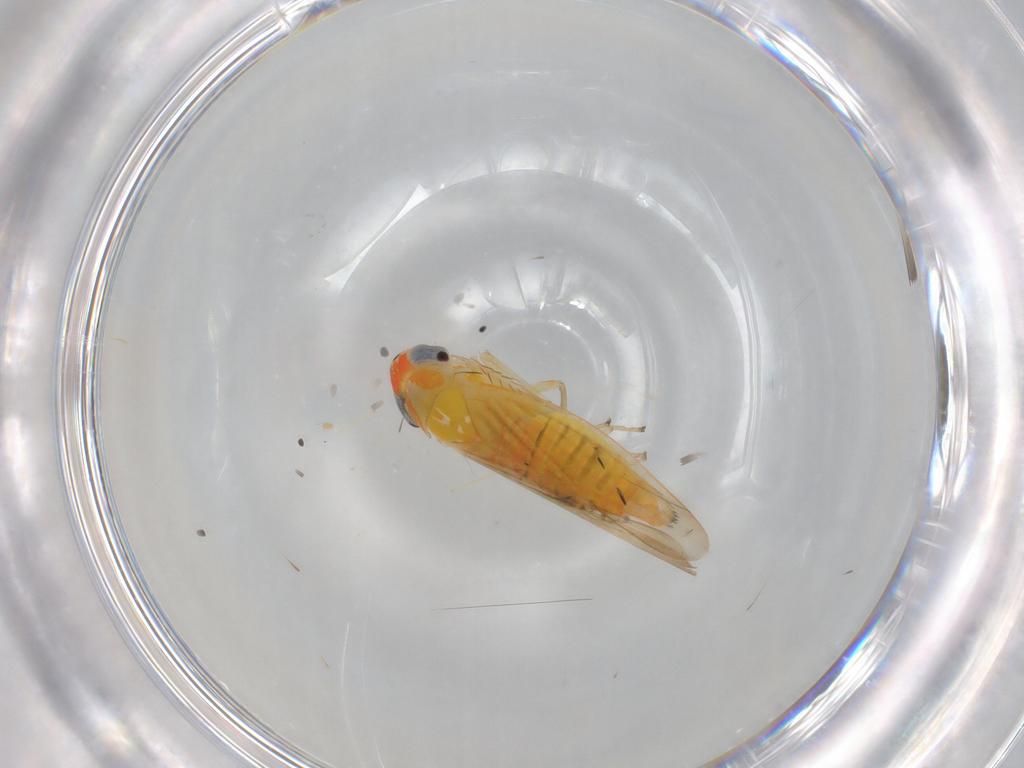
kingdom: Animalia
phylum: Arthropoda
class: Insecta
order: Hemiptera
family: Cicadellidae
